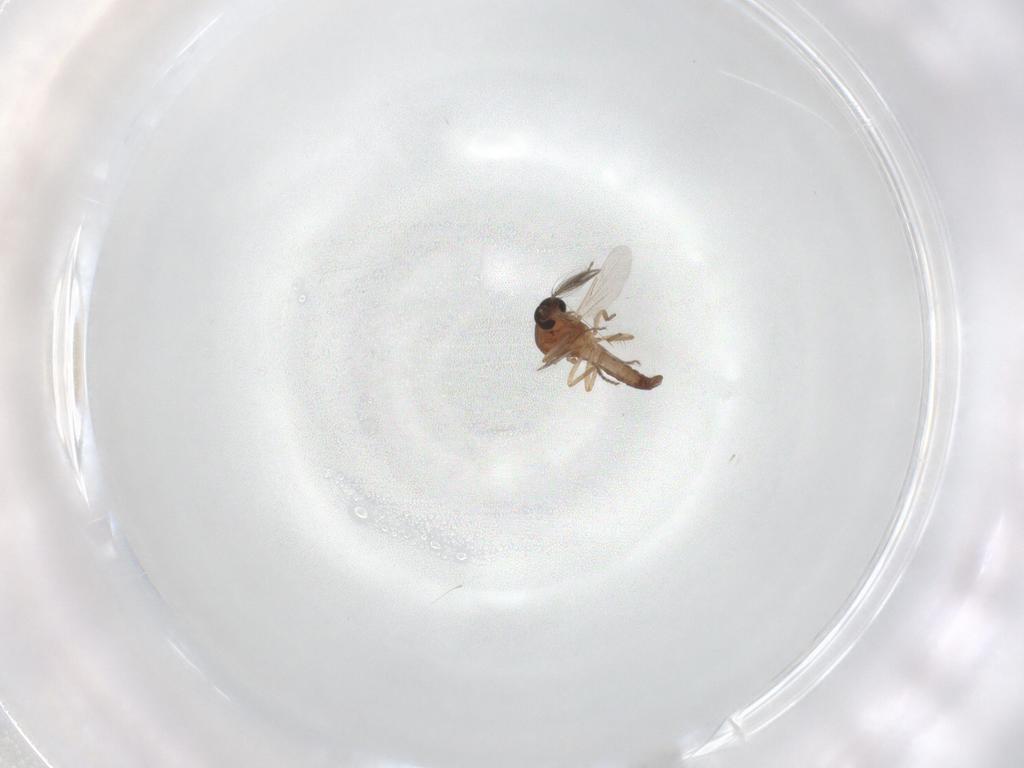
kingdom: Animalia
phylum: Arthropoda
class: Insecta
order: Diptera
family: Ceratopogonidae
